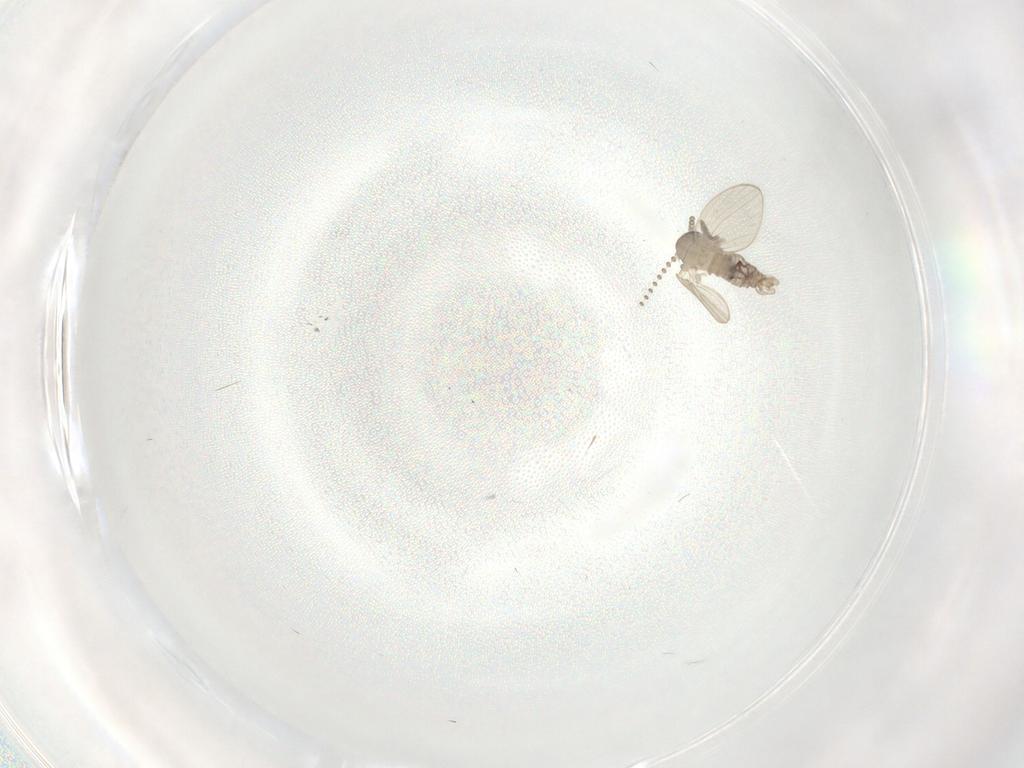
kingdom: Animalia
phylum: Arthropoda
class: Insecta
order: Diptera
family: Psychodidae
